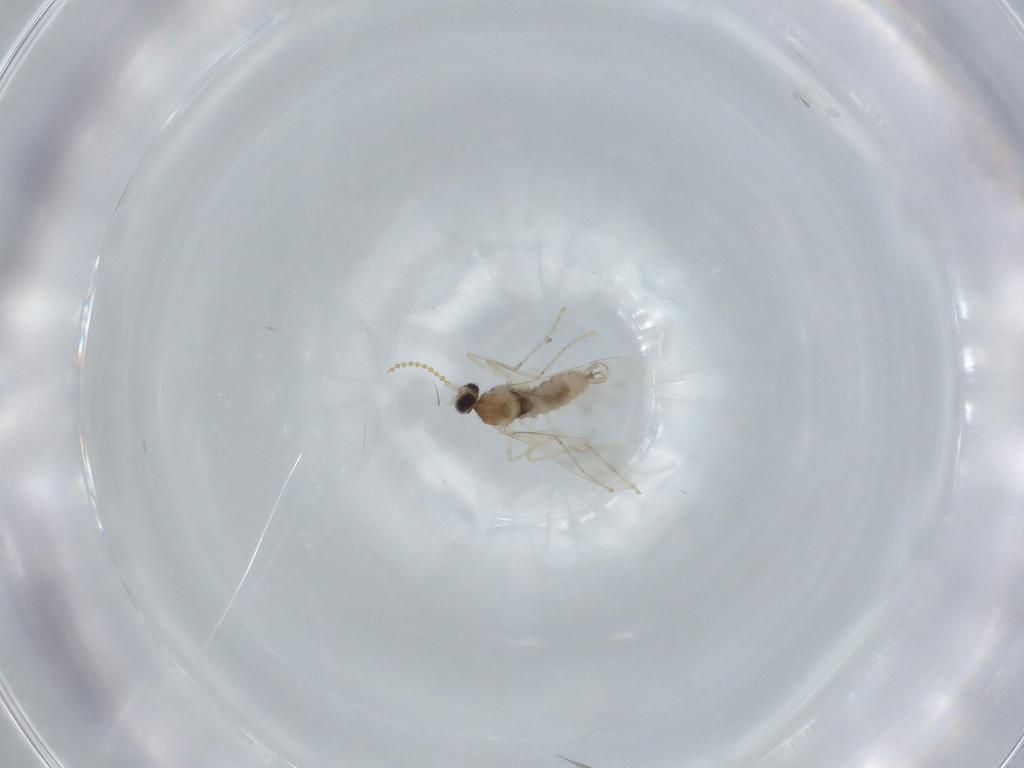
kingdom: Animalia
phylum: Arthropoda
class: Insecta
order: Diptera
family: Cecidomyiidae
